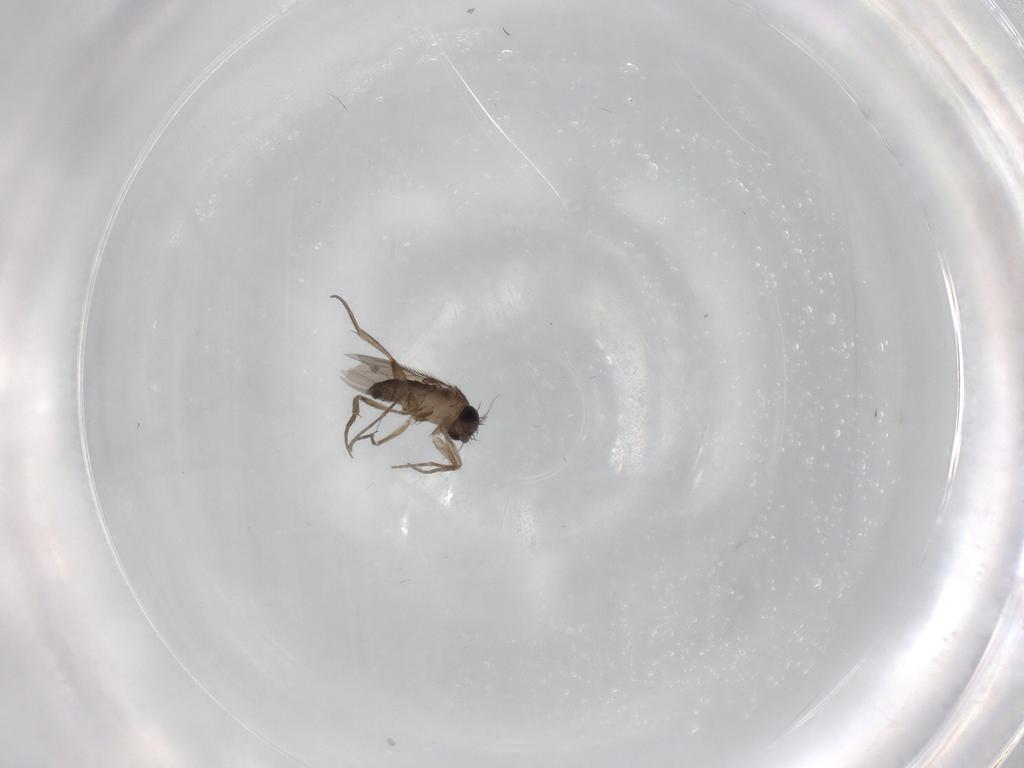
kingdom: Animalia
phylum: Arthropoda
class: Insecta
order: Diptera
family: Phoridae
